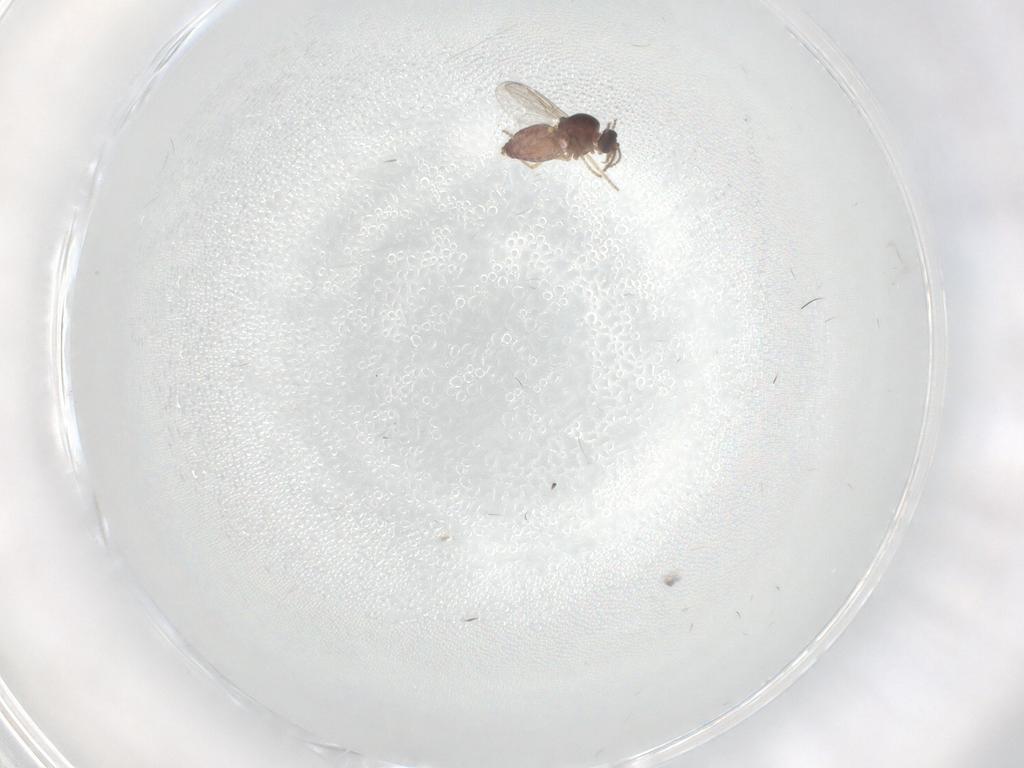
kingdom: Animalia
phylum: Arthropoda
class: Insecta
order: Diptera
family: Ceratopogonidae
